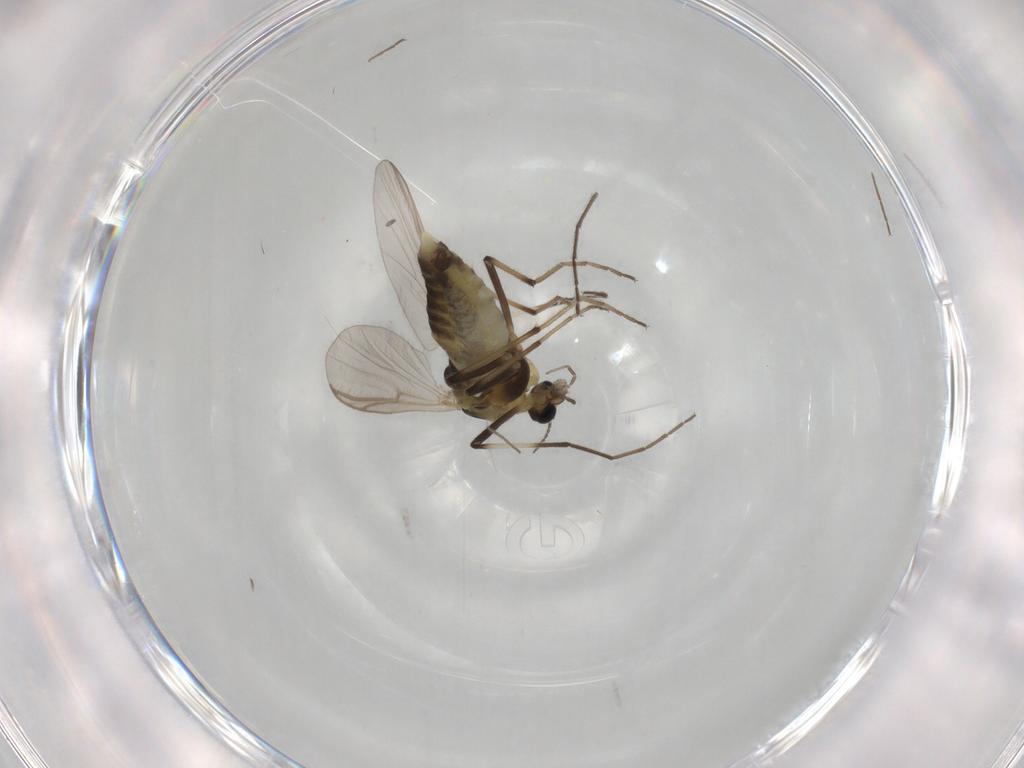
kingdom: Animalia
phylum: Arthropoda
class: Insecta
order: Diptera
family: Chironomidae
